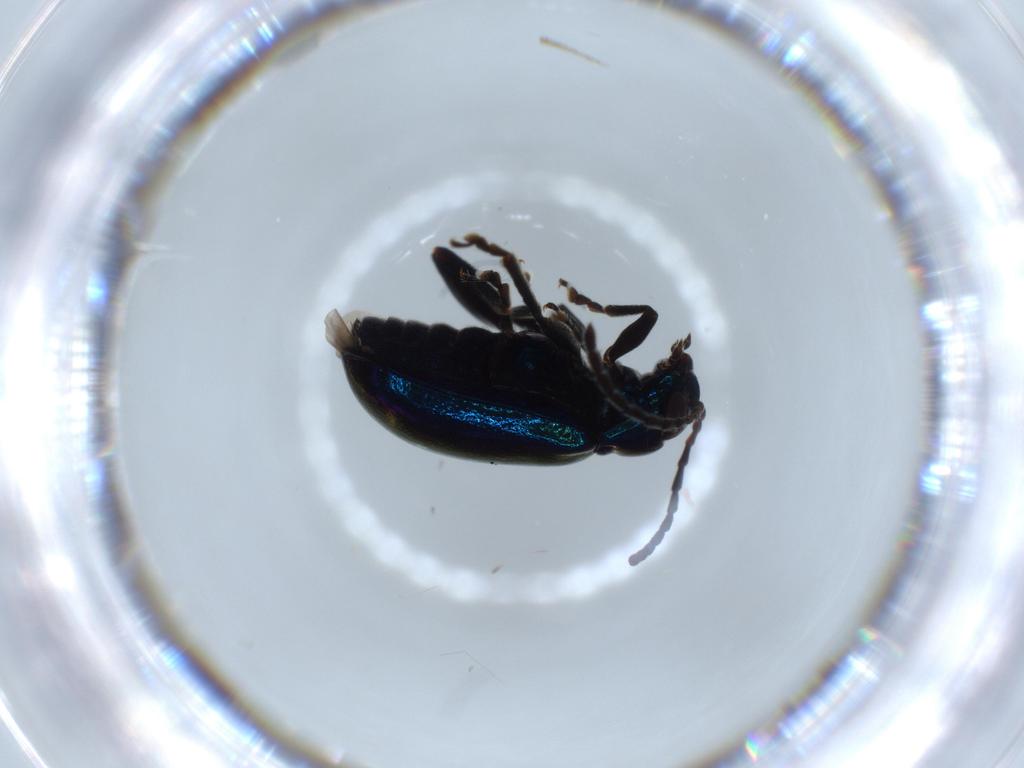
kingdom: Animalia
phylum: Arthropoda
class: Insecta
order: Coleoptera
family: Chrysomelidae
